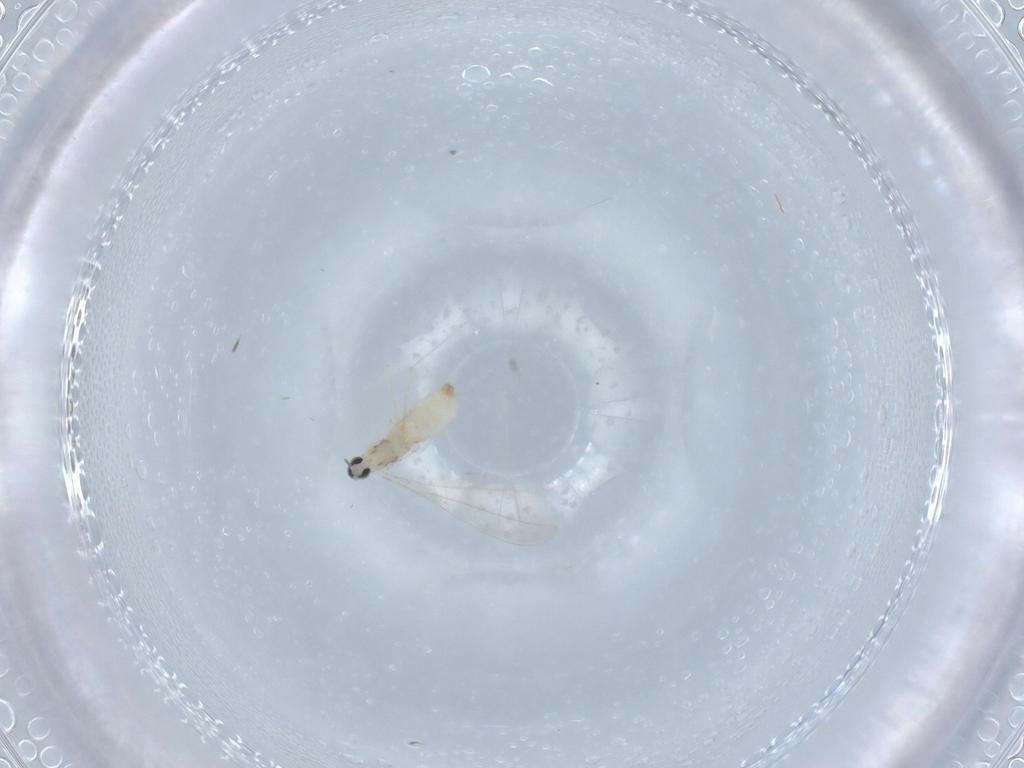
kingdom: Animalia
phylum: Arthropoda
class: Insecta
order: Diptera
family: Cecidomyiidae
